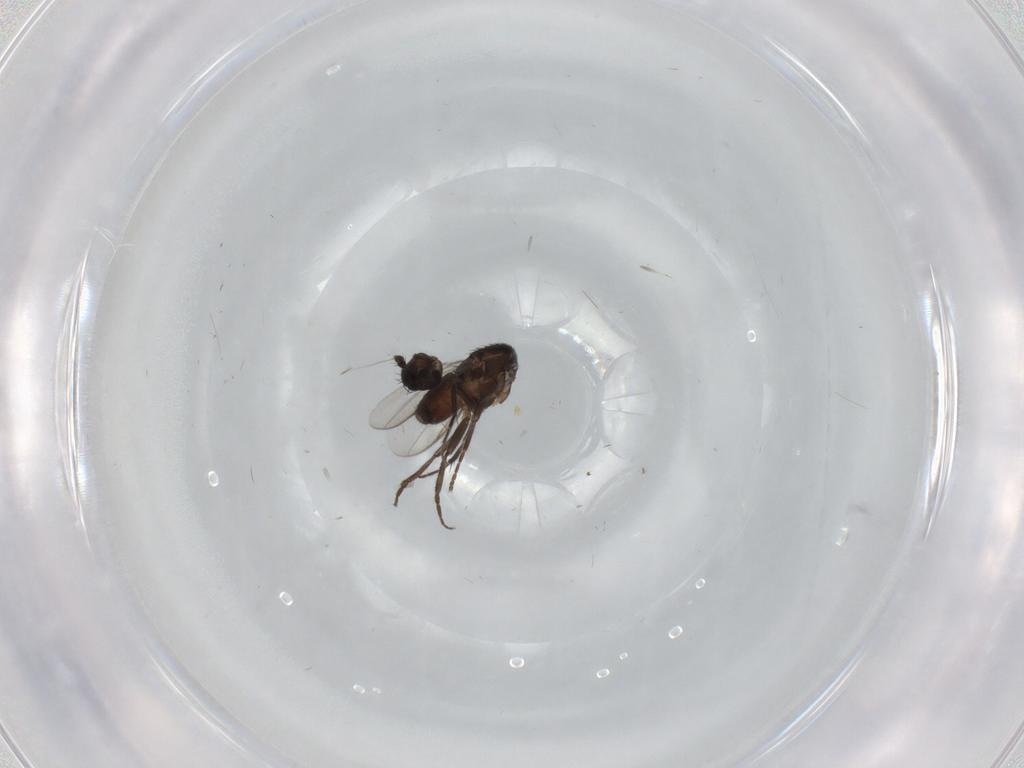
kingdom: Animalia
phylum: Arthropoda
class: Insecta
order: Diptera
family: Sphaeroceridae
